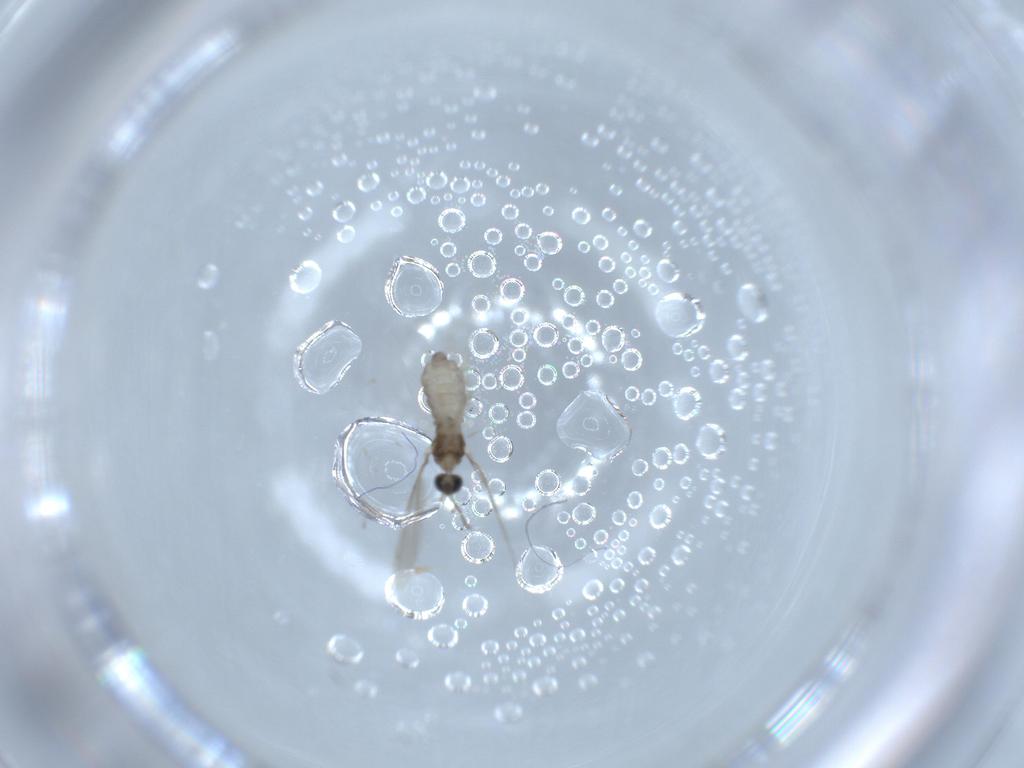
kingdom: Animalia
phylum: Arthropoda
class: Insecta
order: Diptera
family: Cecidomyiidae
